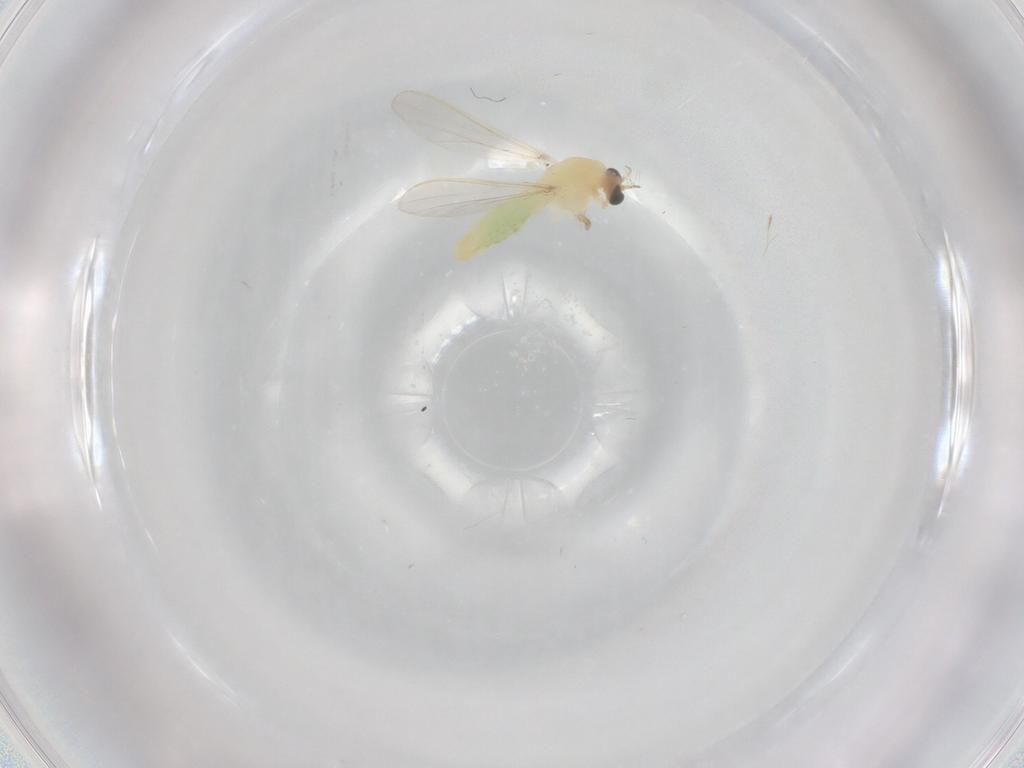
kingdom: Animalia
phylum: Arthropoda
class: Insecta
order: Diptera
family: Chironomidae
